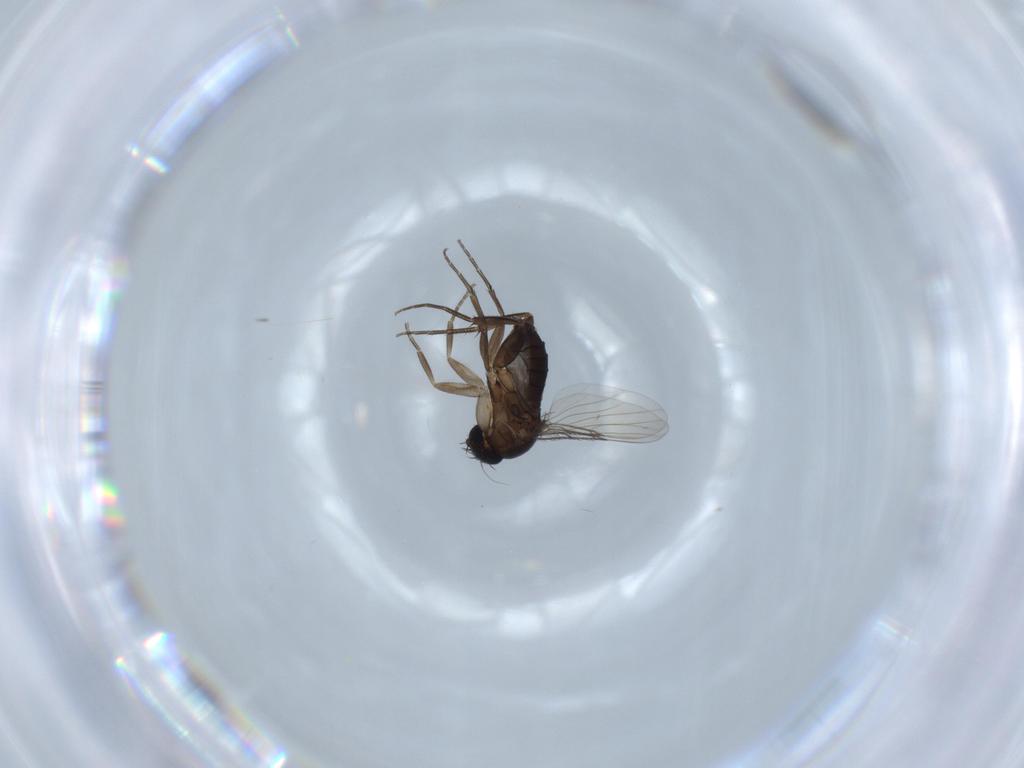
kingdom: Animalia
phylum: Arthropoda
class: Insecta
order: Diptera
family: Phoridae
